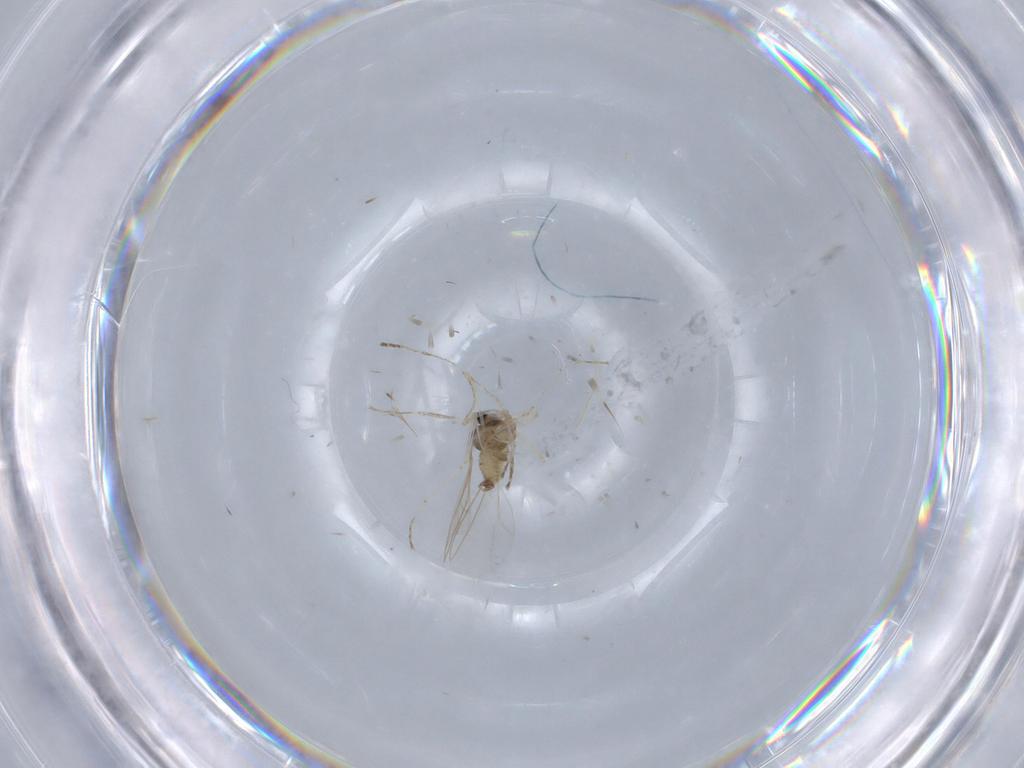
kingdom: Animalia
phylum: Arthropoda
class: Insecta
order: Diptera
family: Cecidomyiidae
